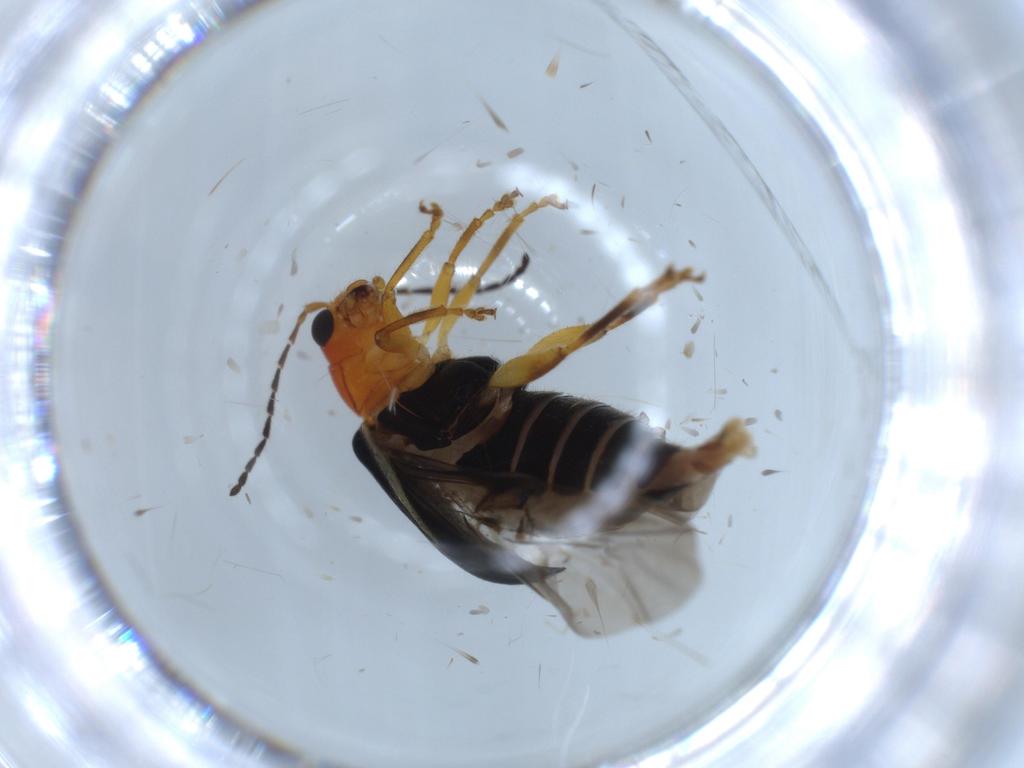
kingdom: Animalia
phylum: Arthropoda
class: Insecta
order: Coleoptera
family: Chrysomelidae
